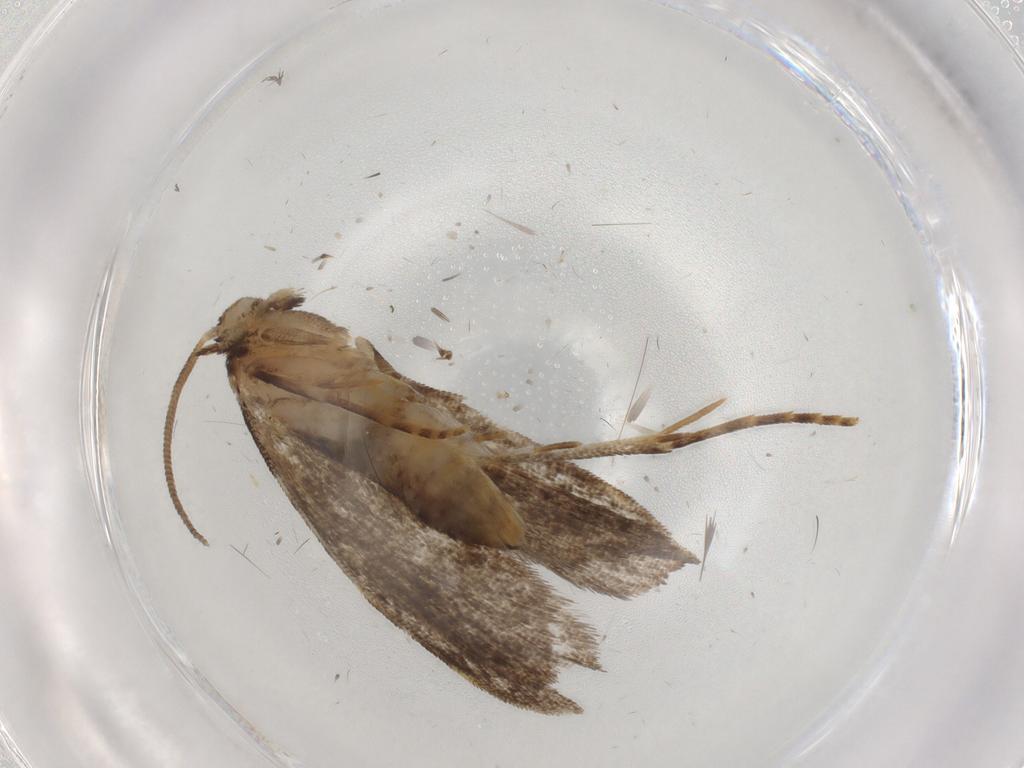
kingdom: Animalia
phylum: Arthropoda
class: Insecta
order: Lepidoptera
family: Dryadaulidae
